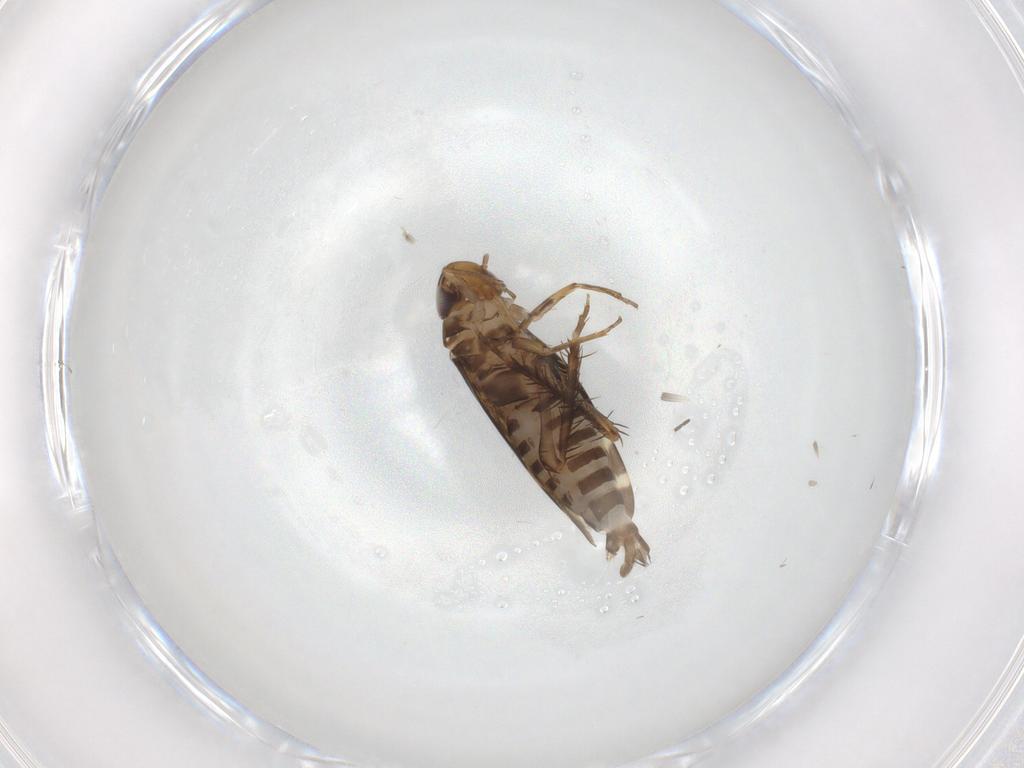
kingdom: Animalia
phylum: Arthropoda
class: Insecta
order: Hemiptera
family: Cicadellidae
